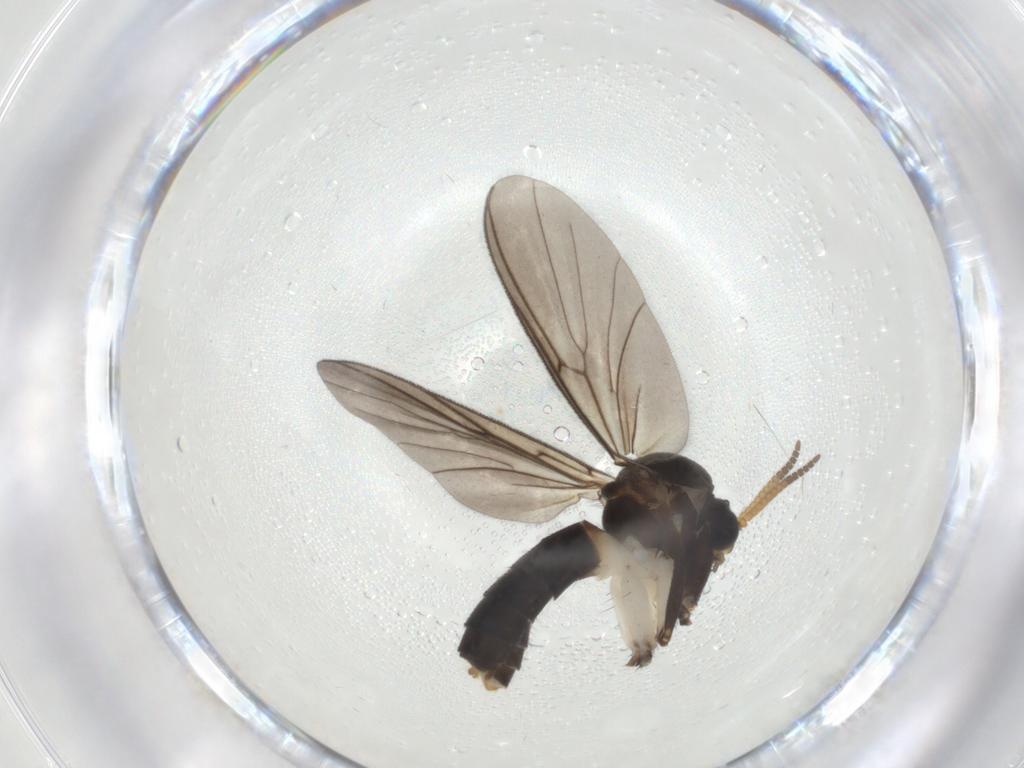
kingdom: Animalia
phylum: Arthropoda
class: Insecta
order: Diptera
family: Mycetophilidae
